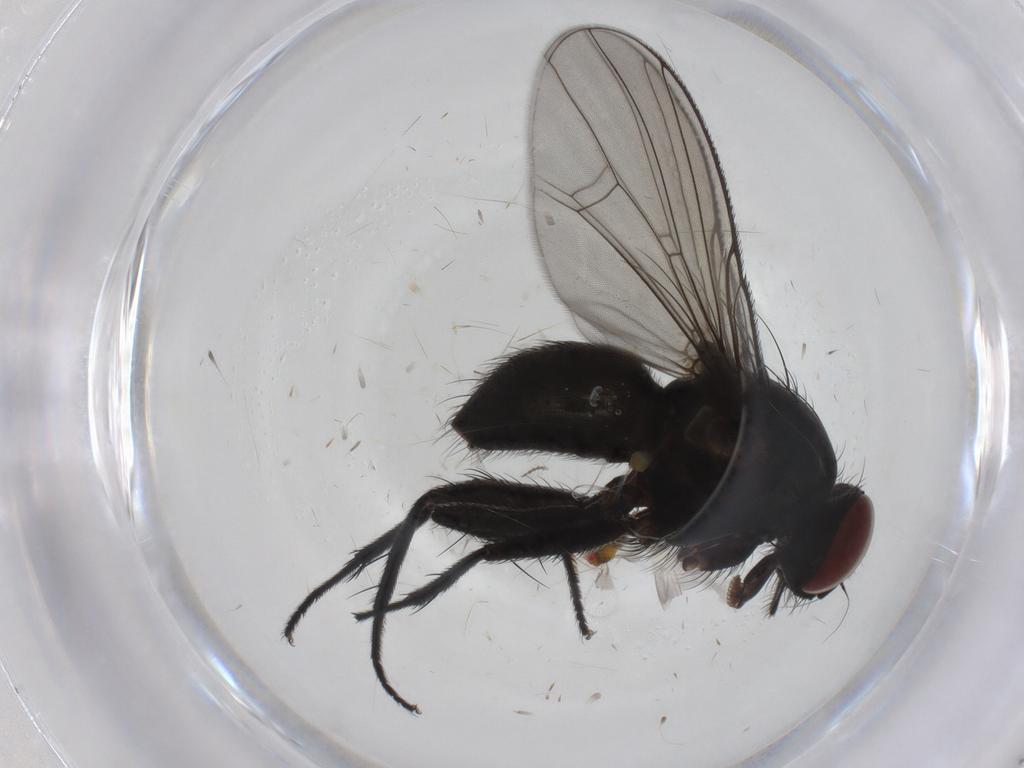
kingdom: Animalia
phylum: Arthropoda
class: Insecta
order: Diptera
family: Muscidae
